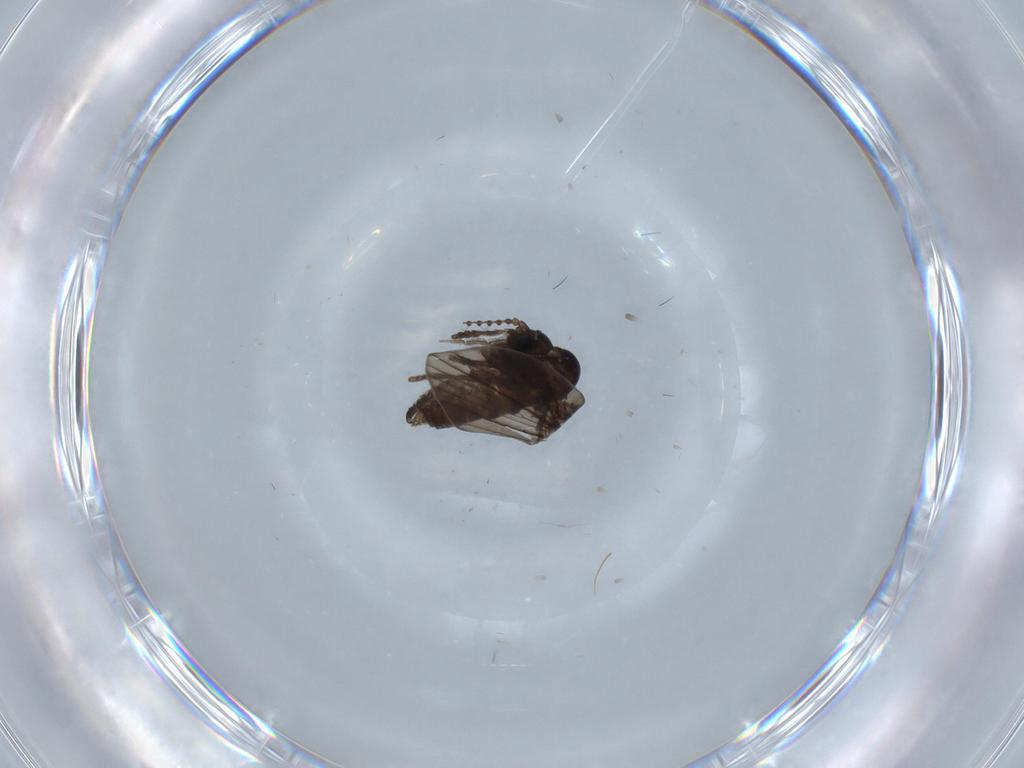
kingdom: Animalia
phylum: Arthropoda
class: Insecta
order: Diptera
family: Psychodidae
